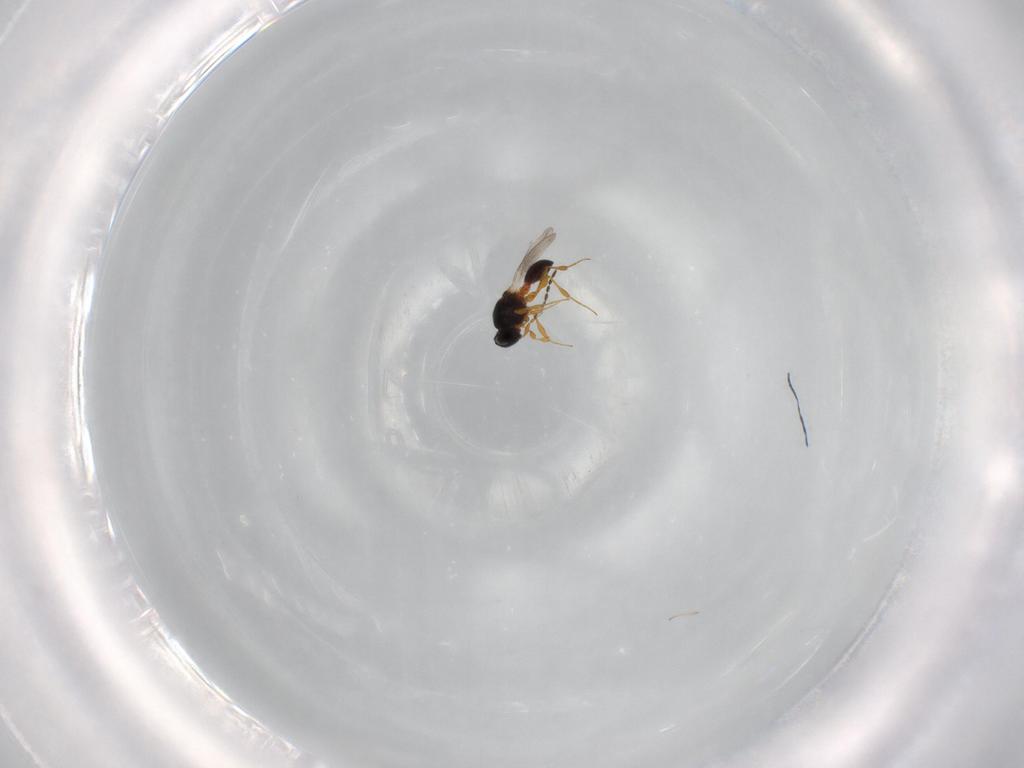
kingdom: Animalia
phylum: Arthropoda
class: Insecta
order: Hymenoptera
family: Platygastridae
